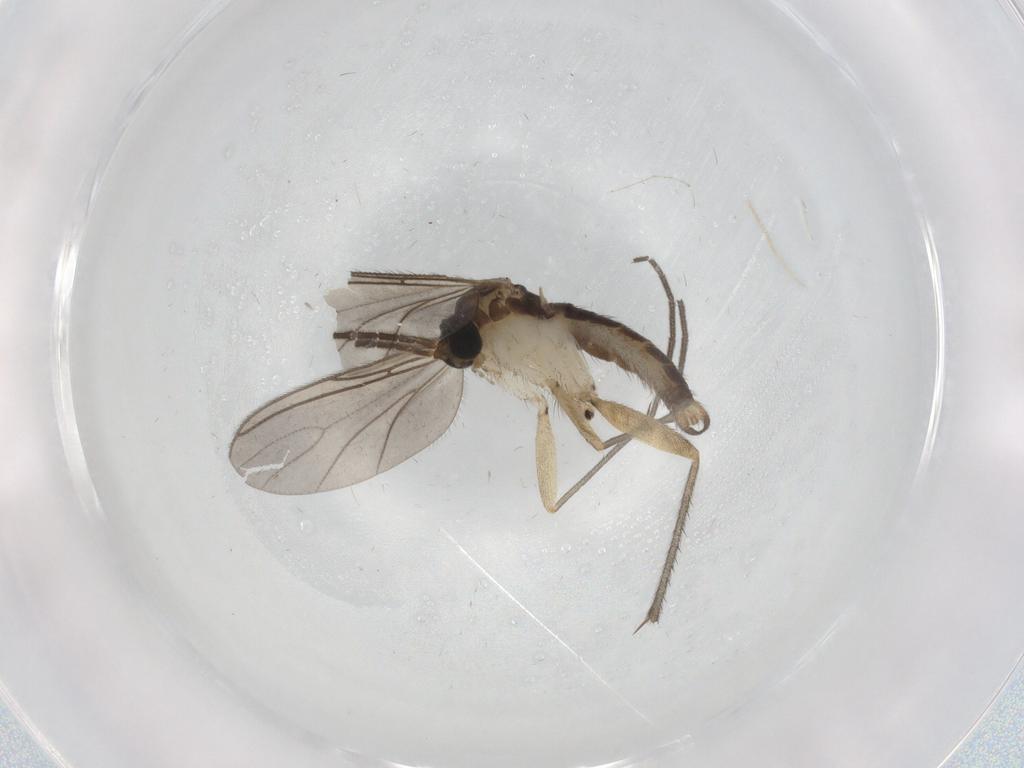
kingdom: Animalia
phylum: Arthropoda
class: Insecta
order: Diptera
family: Sciaridae
